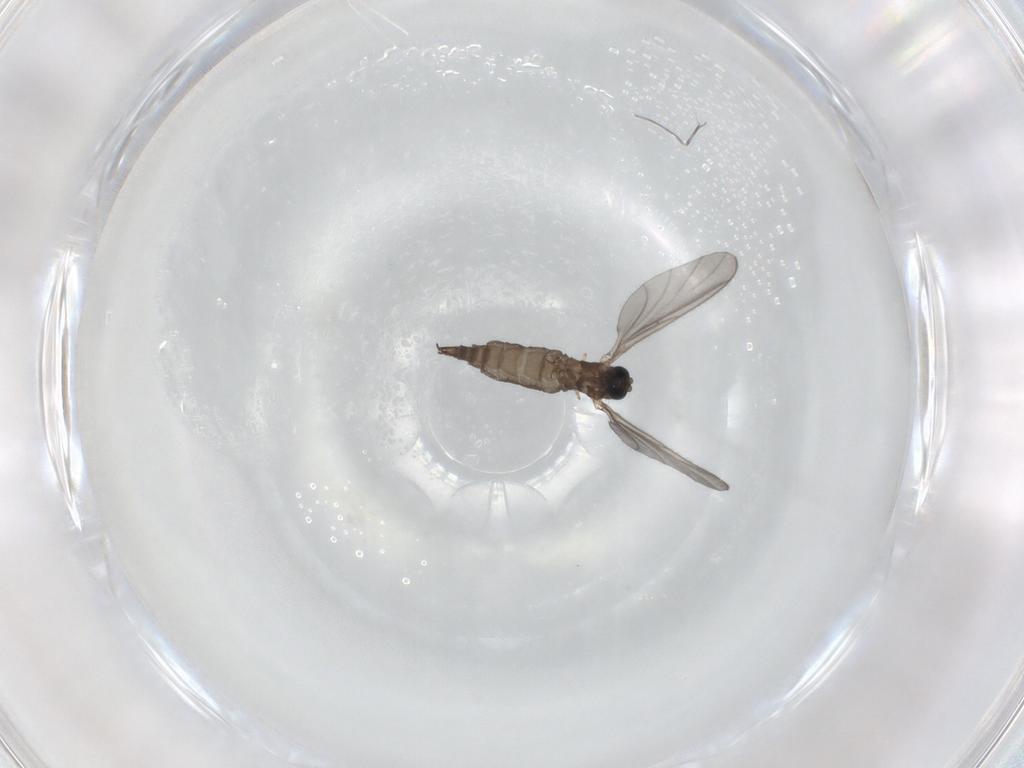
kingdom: Animalia
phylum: Arthropoda
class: Insecta
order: Diptera
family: Sciaridae
